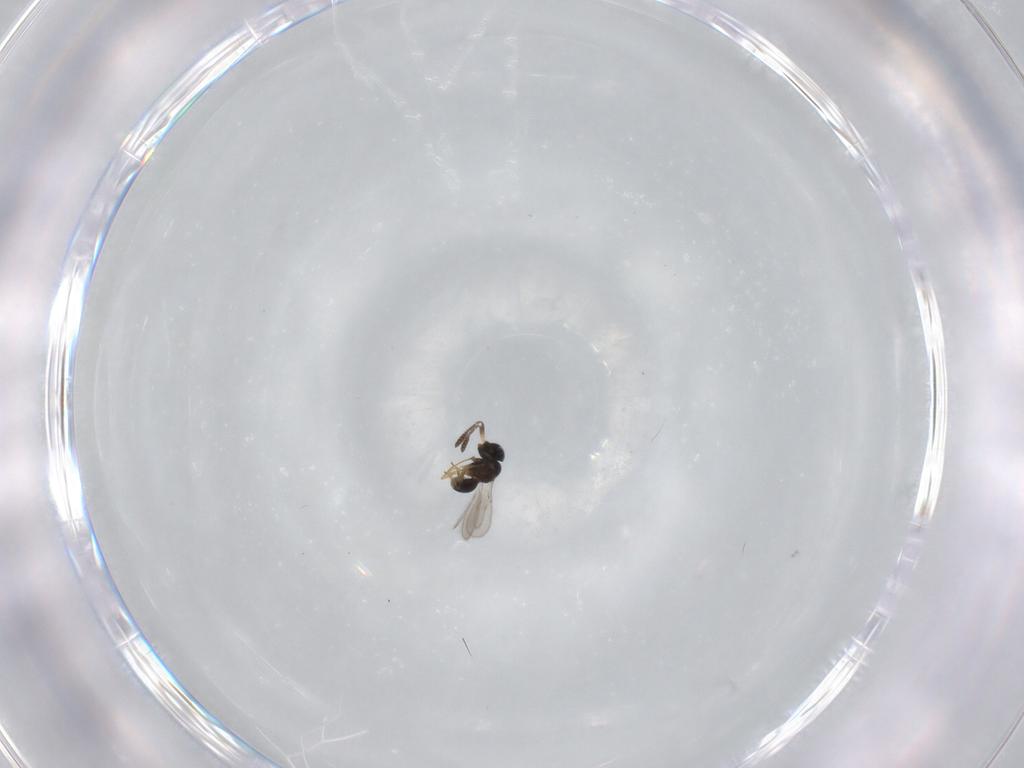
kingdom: Animalia
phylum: Arthropoda
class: Insecta
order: Hymenoptera
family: Scelionidae
